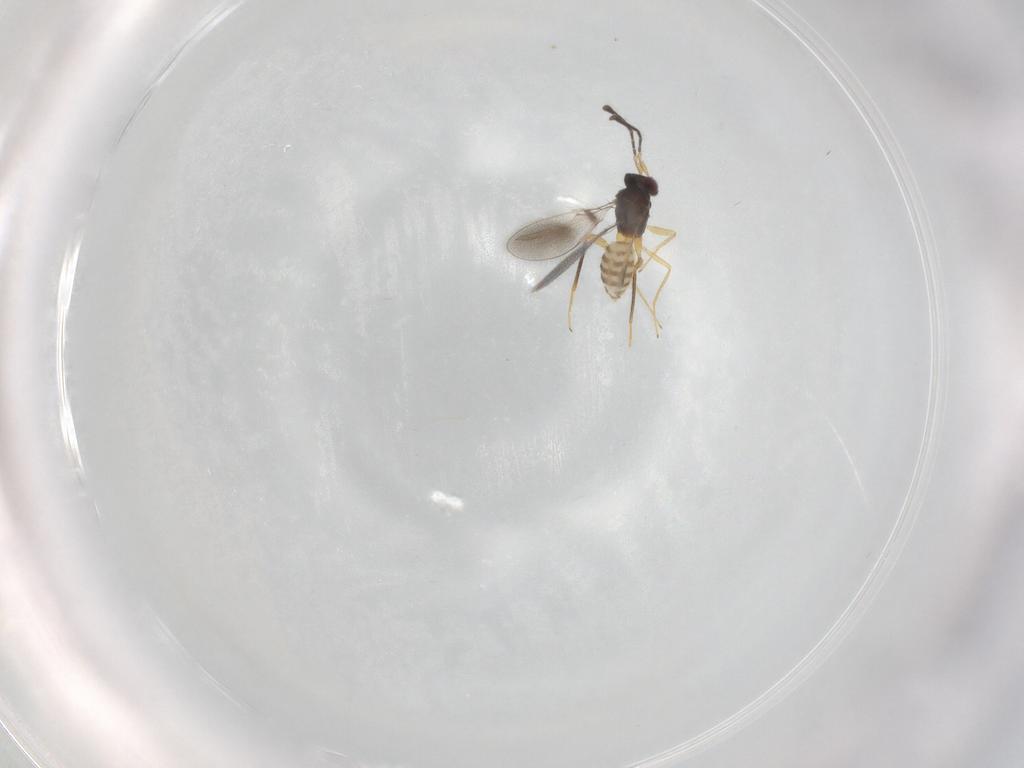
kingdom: Animalia
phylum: Arthropoda
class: Insecta
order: Hymenoptera
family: Mymaridae
